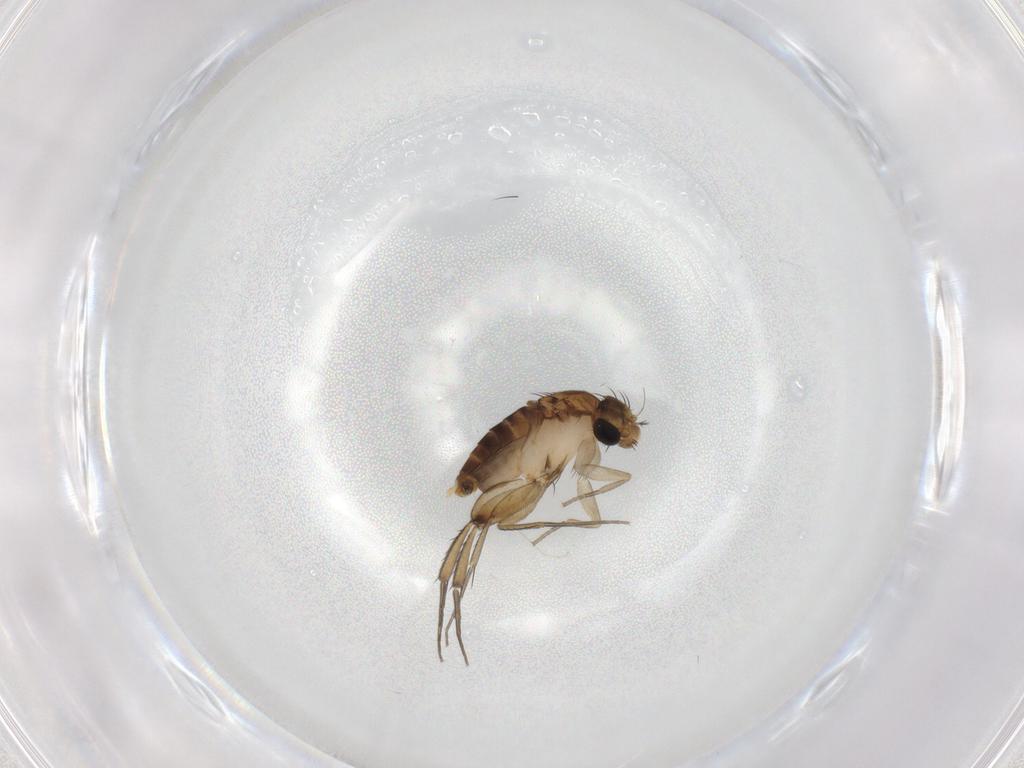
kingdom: Animalia
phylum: Arthropoda
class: Insecta
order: Diptera
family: Phoridae
